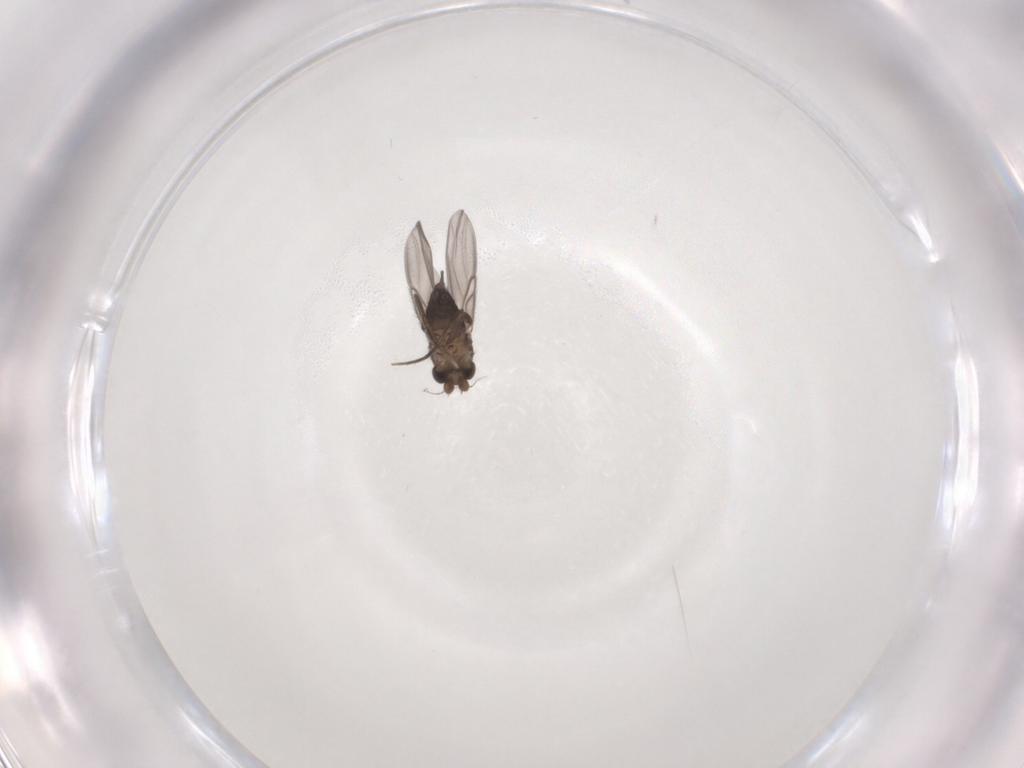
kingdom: Animalia
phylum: Arthropoda
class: Insecta
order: Diptera
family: Phoridae
